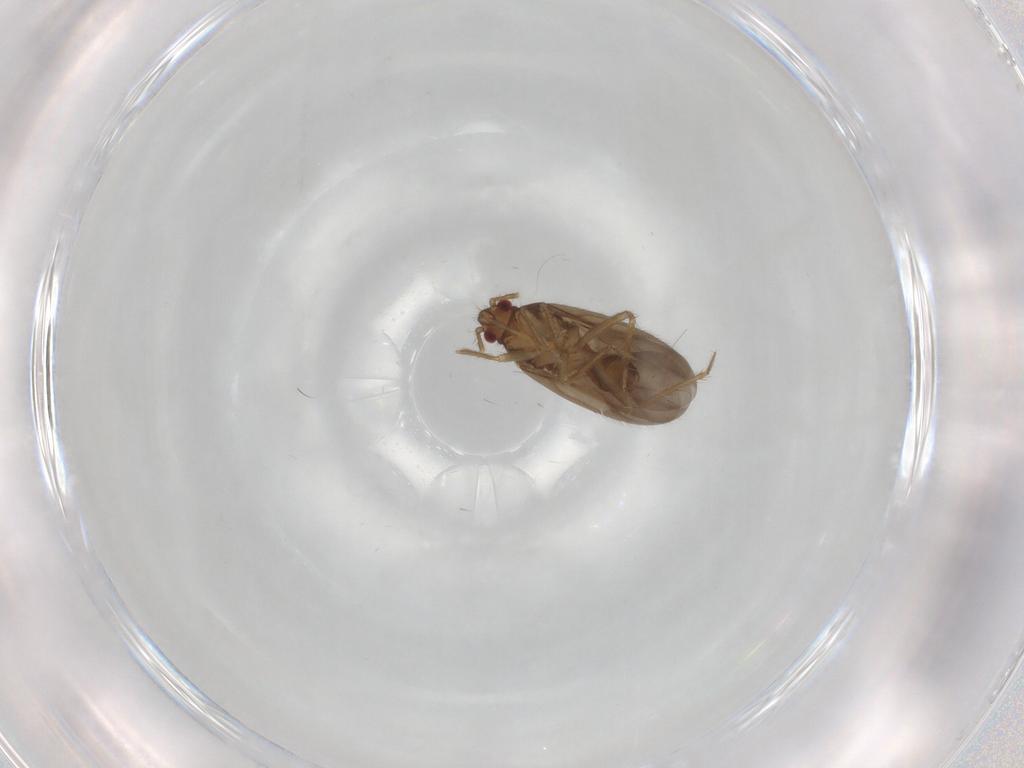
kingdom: Animalia
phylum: Arthropoda
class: Insecta
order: Hemiptera
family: Ceratocombidae
